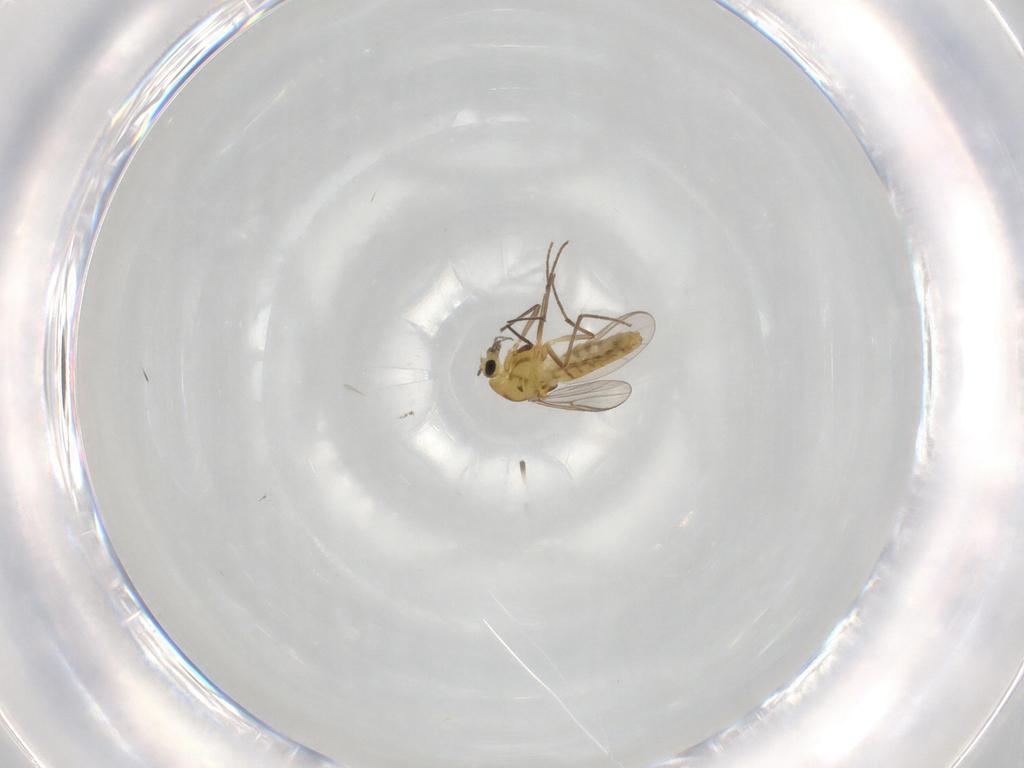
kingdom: Animalia
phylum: Arthropoda
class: Insecta
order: Diptera
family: Chironomidae
